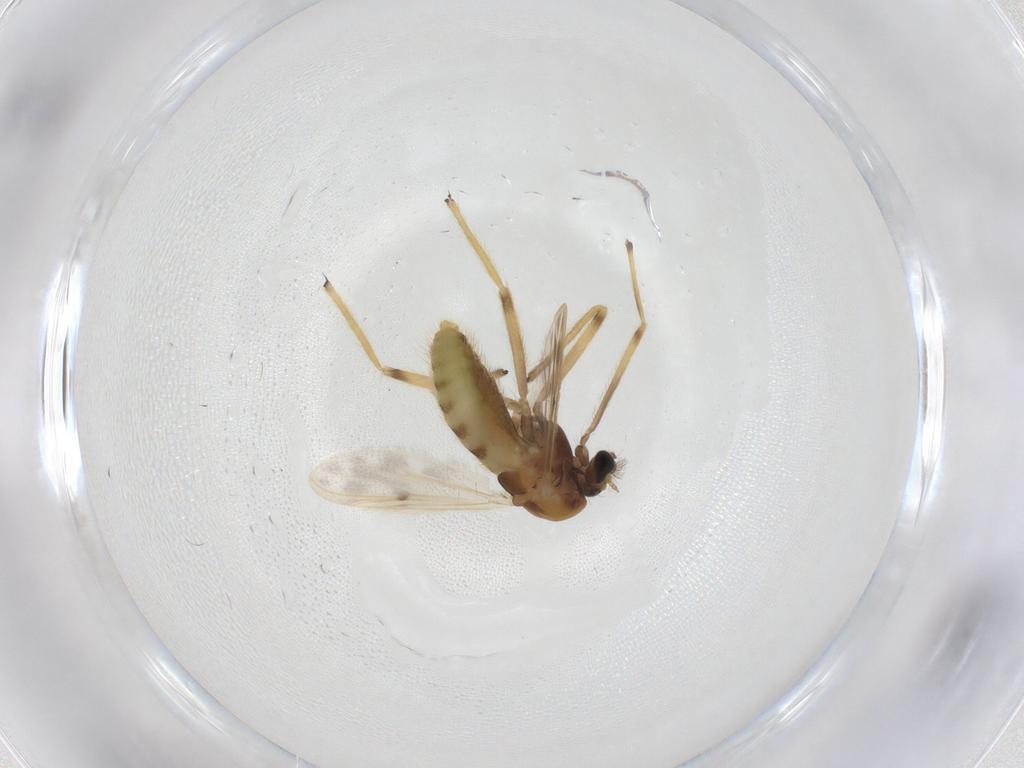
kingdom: Animalia
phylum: Arthropoda
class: Insecta
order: Diptera
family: Chironomidae
